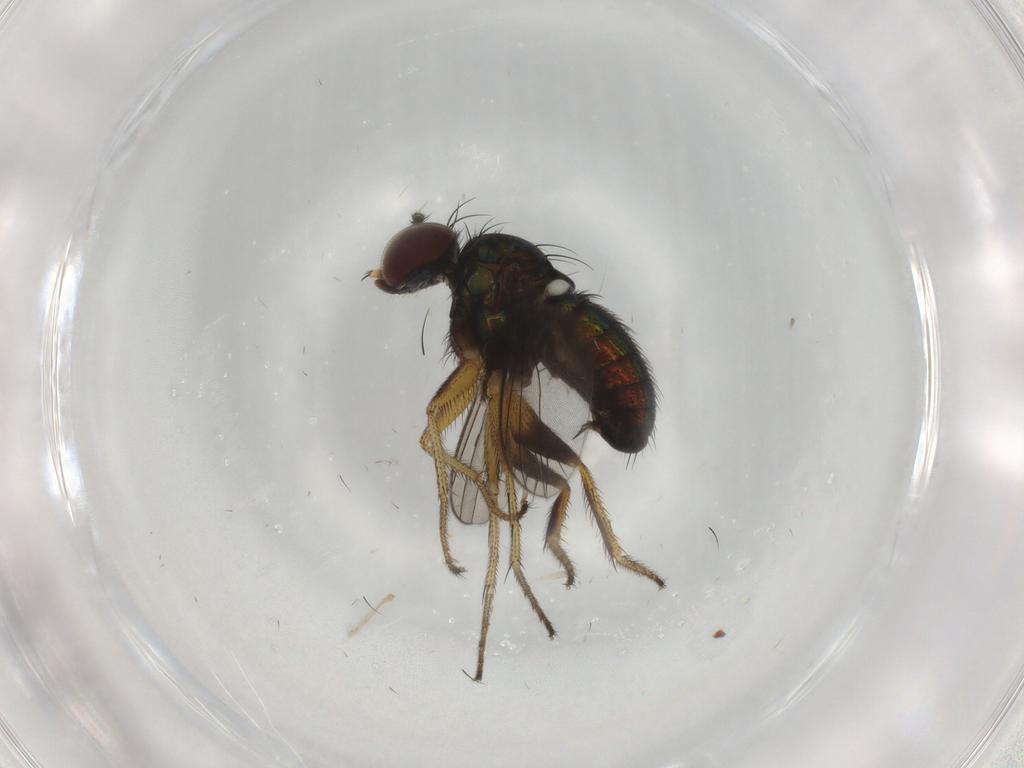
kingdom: Animalia
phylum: Arthropoda
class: Insecta
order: Diptera
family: Dolichopodidae
